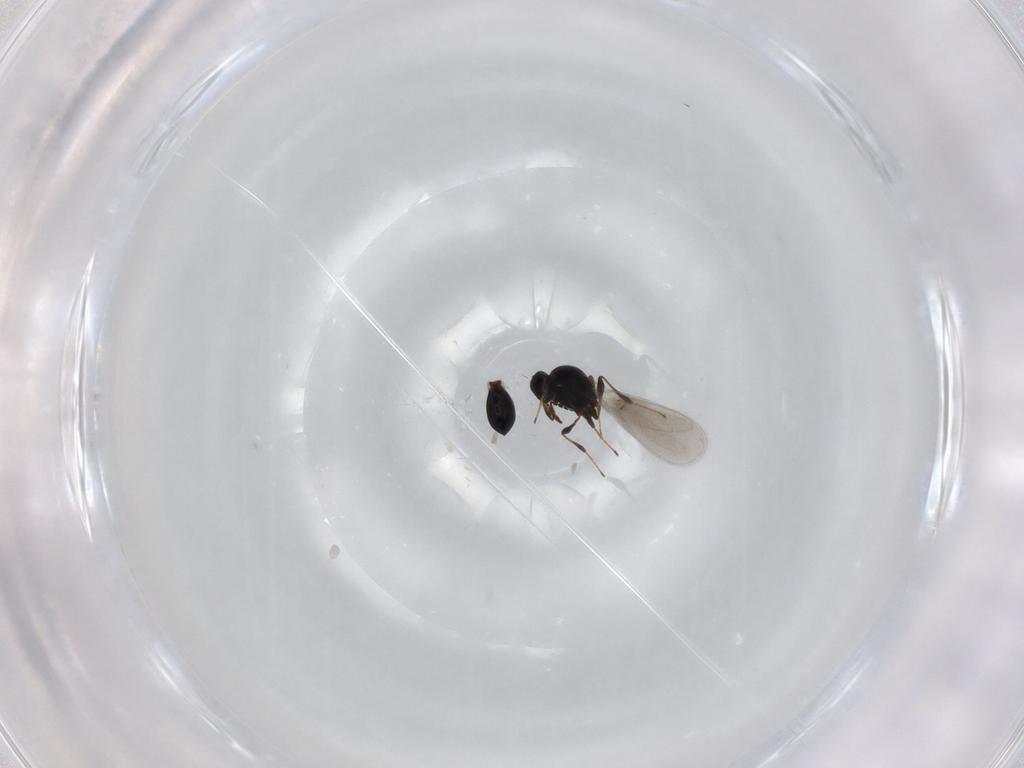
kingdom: Animalia
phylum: Arthropoda
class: Insecta
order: Hymenoptera
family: Platygastridae
